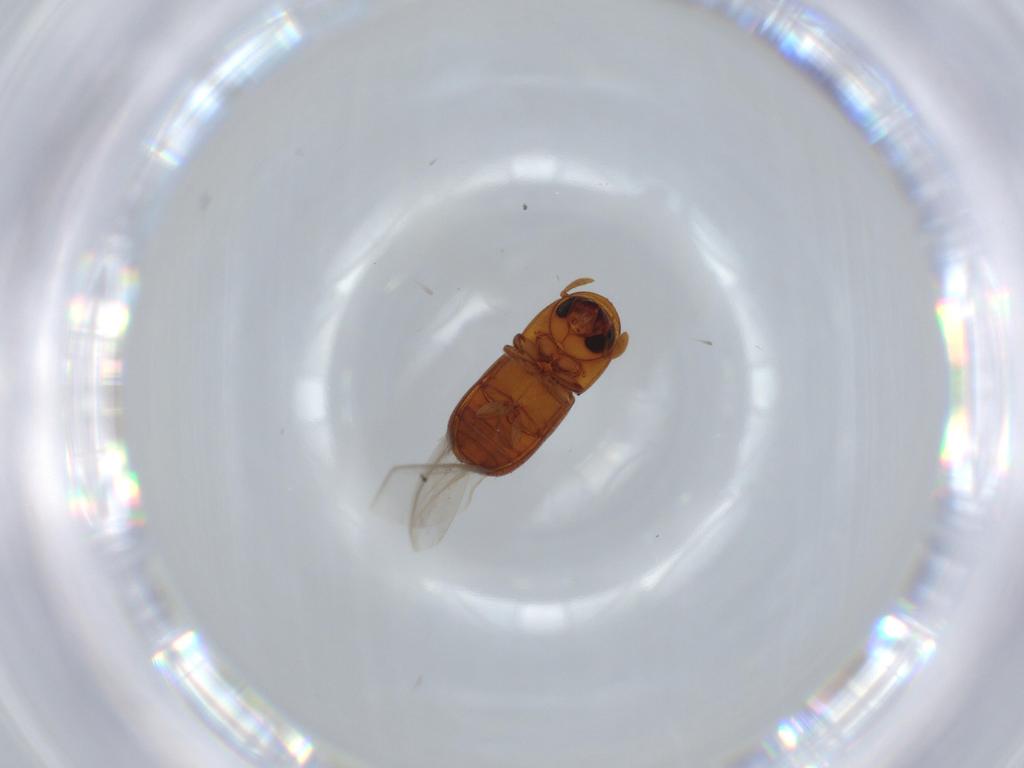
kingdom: Animalia
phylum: Arthropoda
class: Insecta
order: Coleoptera
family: Curculionidae
